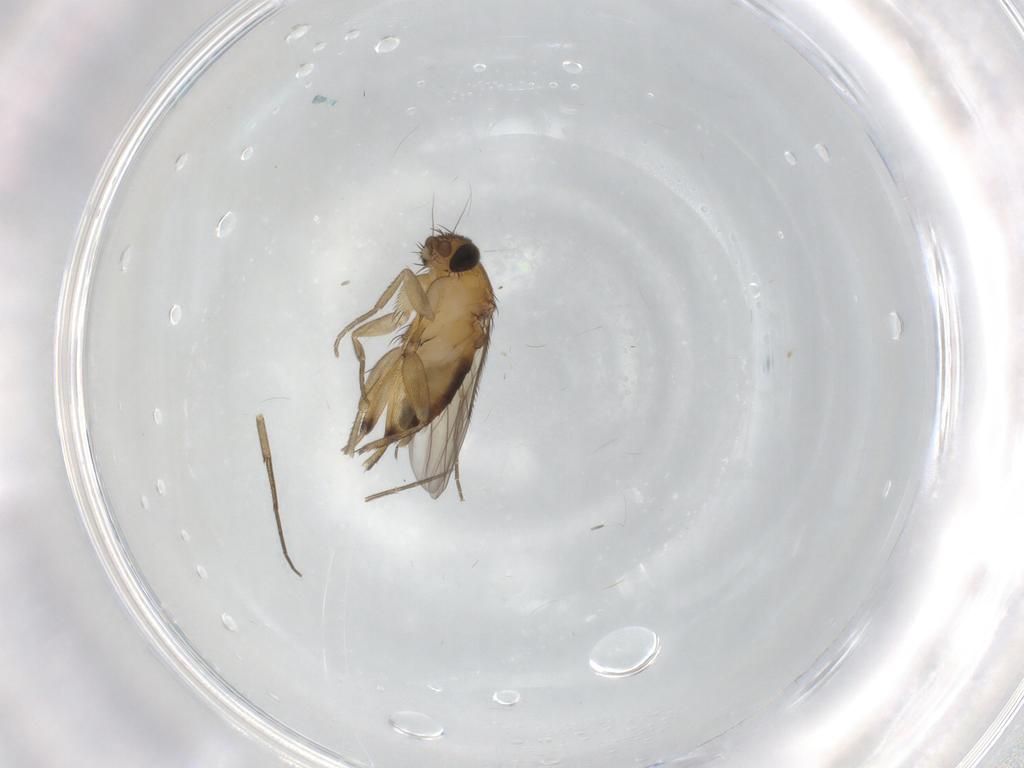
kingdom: Animalia
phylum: Arthropoda
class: Insecta
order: Diptera
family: Phoridae
